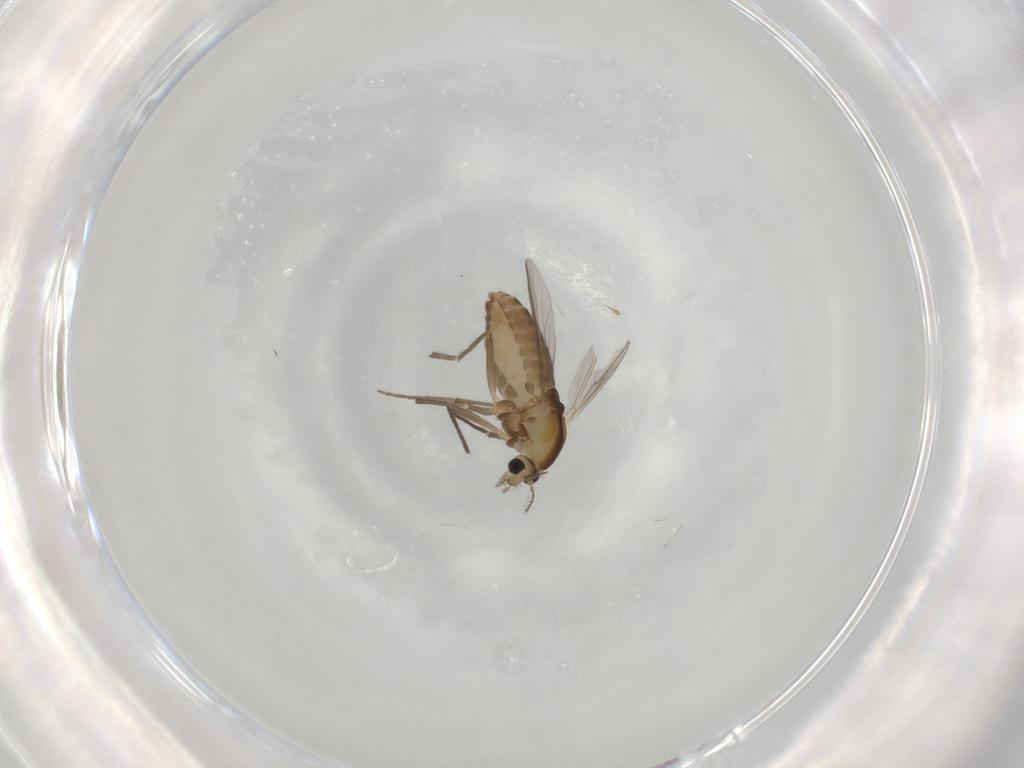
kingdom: Animalia
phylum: Arthropoda
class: Insecta
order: Diptera
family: Chironomidae
